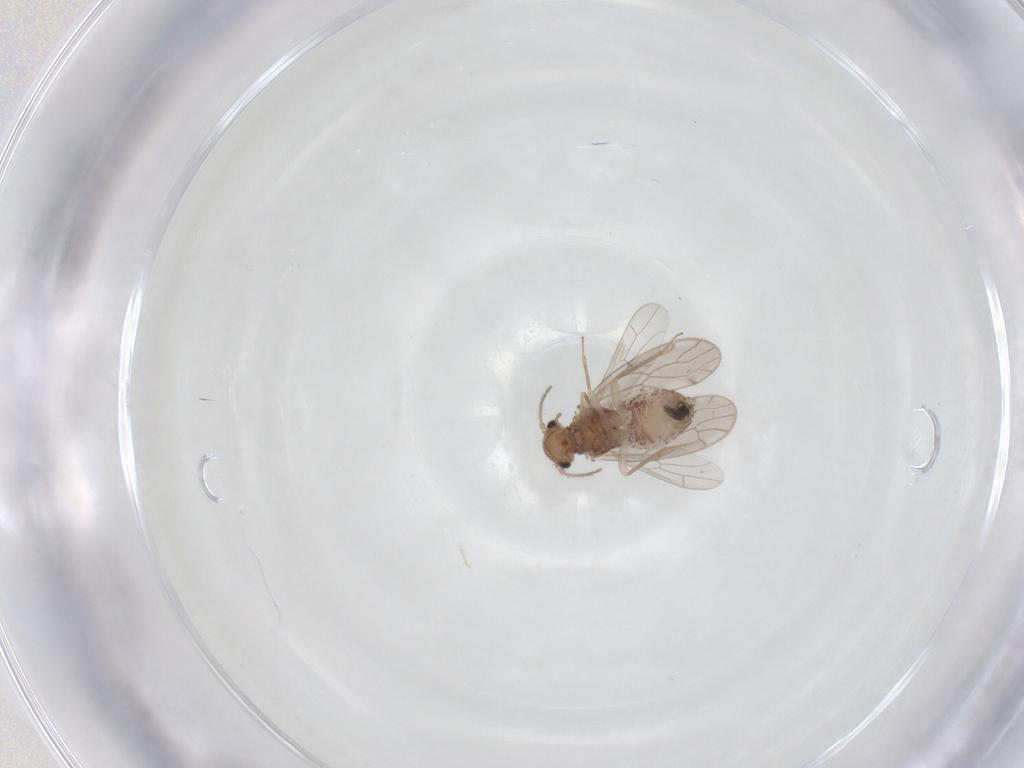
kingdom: Animalia
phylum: Arthropoda
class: Insecta
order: Psocodea
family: Ectopsocidae
